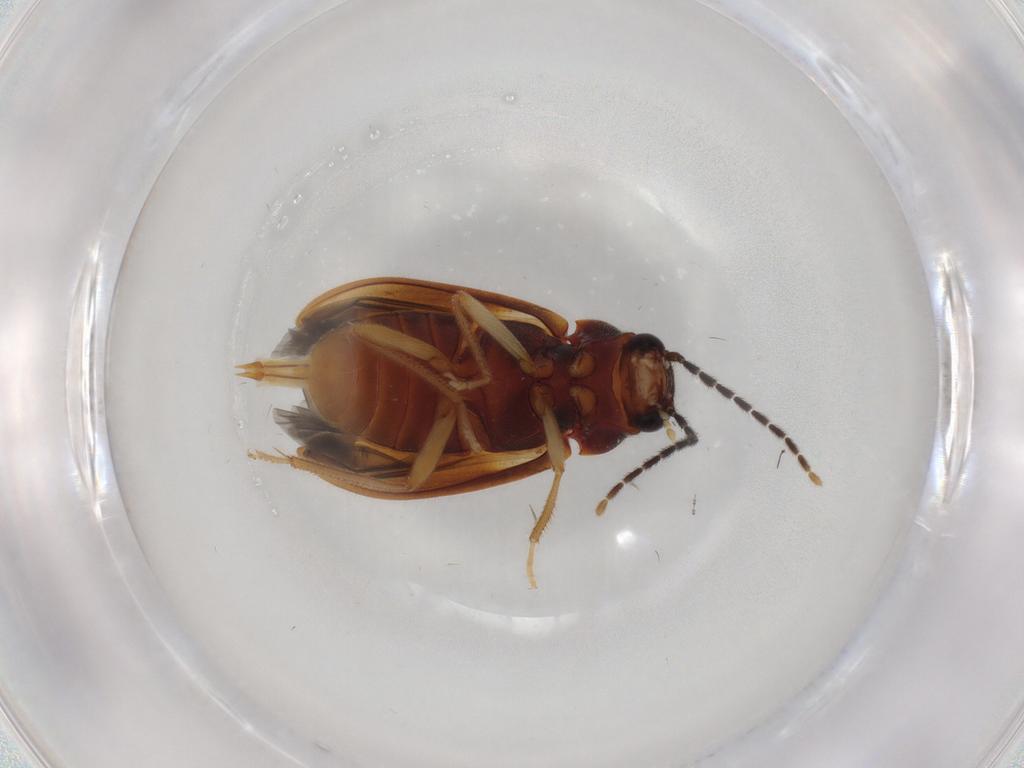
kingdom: Animalia
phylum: Arthropoda
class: Insecta
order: Coleoptera
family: Ptilodactylidae
